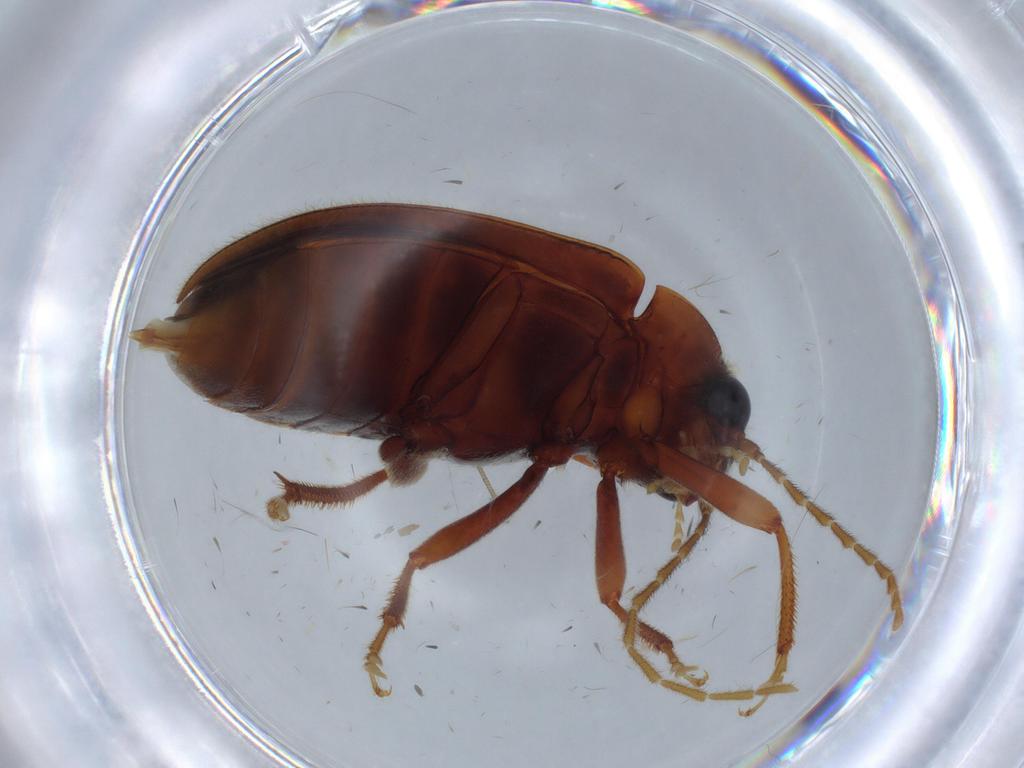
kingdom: Animalia
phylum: Arthropoda
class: Insecta
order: Coleoptera
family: Ptilodactylidae
